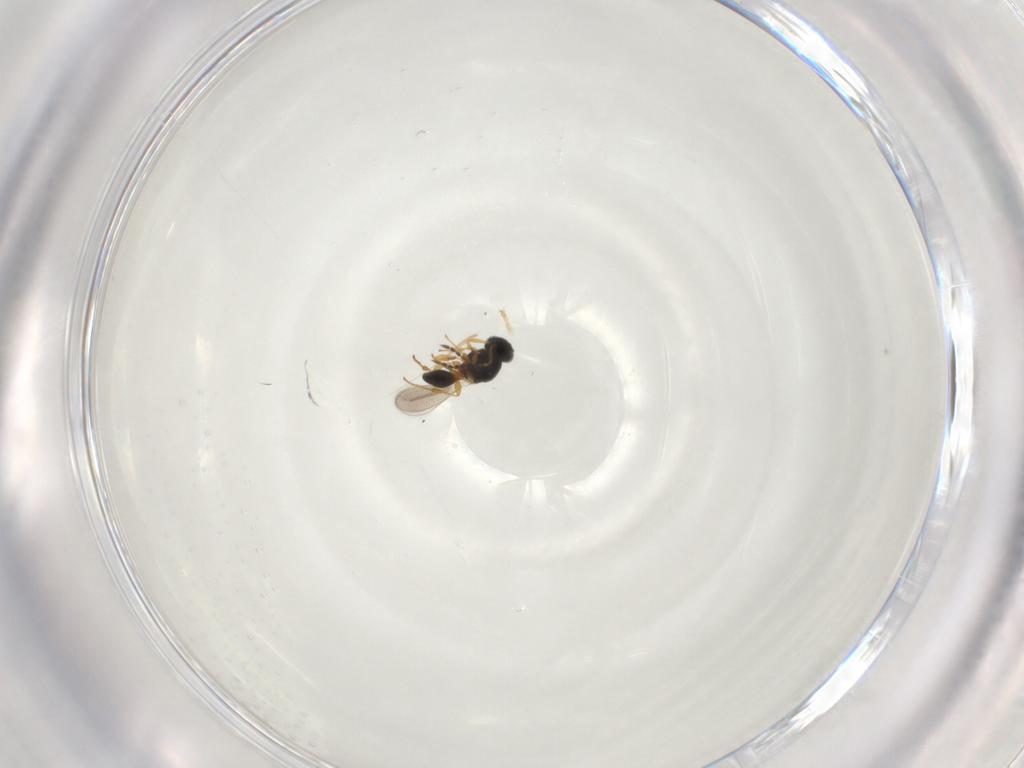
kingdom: Animalia
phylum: Arthropoda
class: Insecta
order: Hymenoptera
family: Platygastridae
